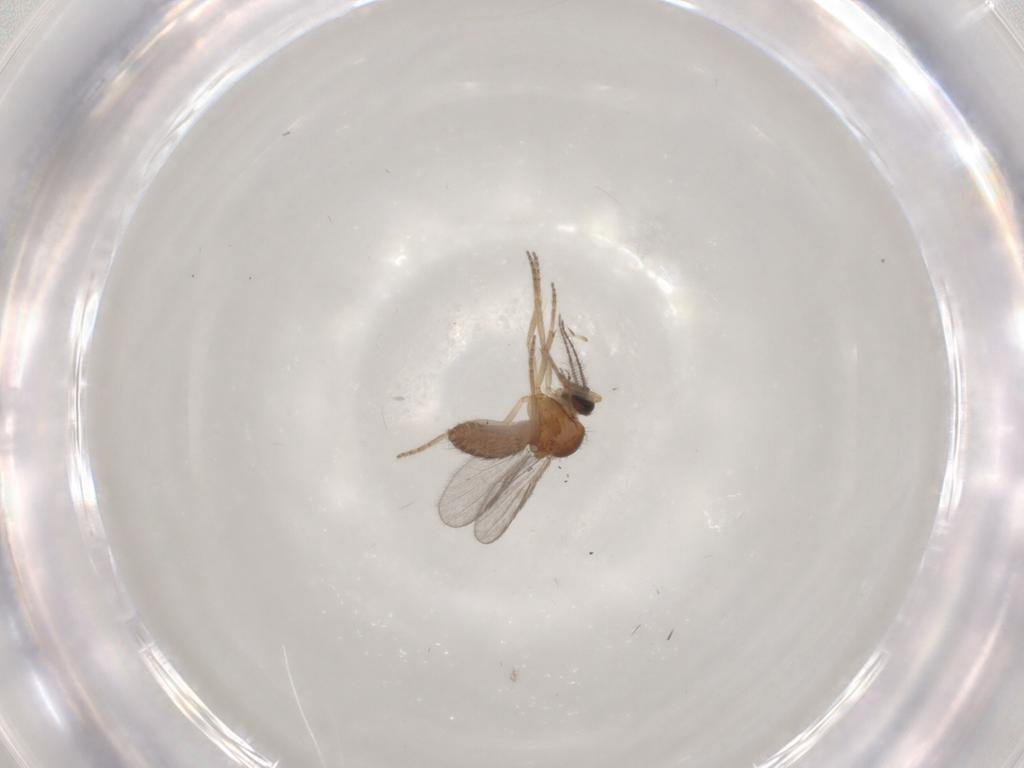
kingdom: Animalia
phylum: Arthropoda
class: Insecta
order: Diptera
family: Ceratopogonidae
